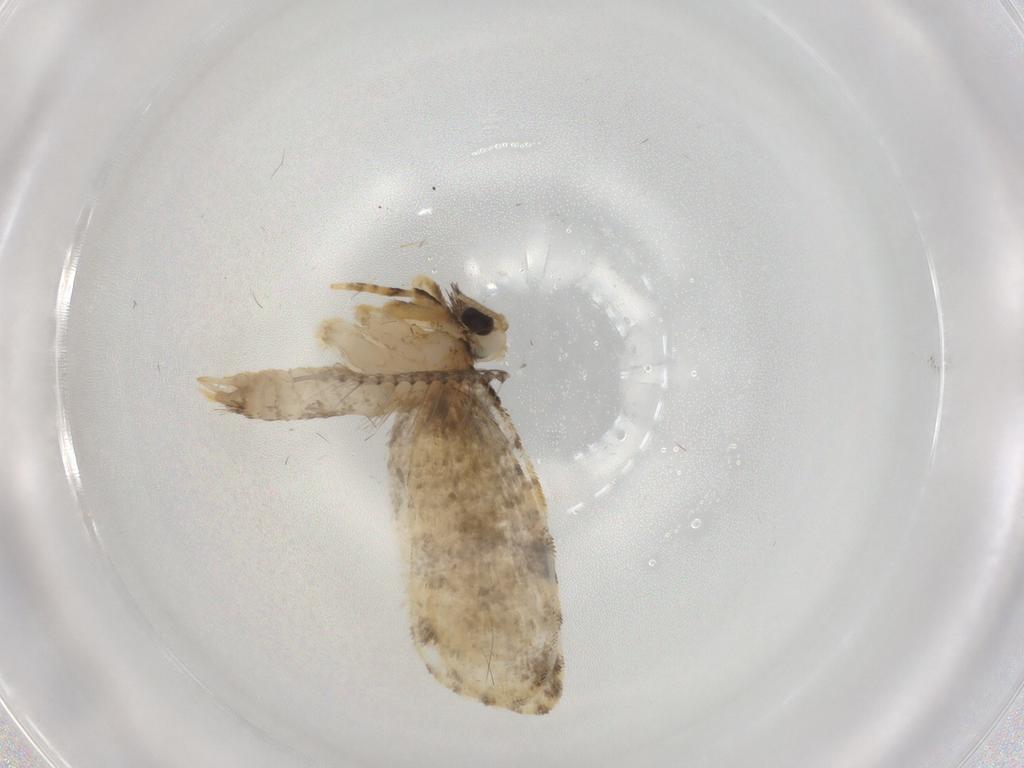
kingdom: Animalia
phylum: Arthropoda
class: Insecta
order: Lepidoptera
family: Psychidae
